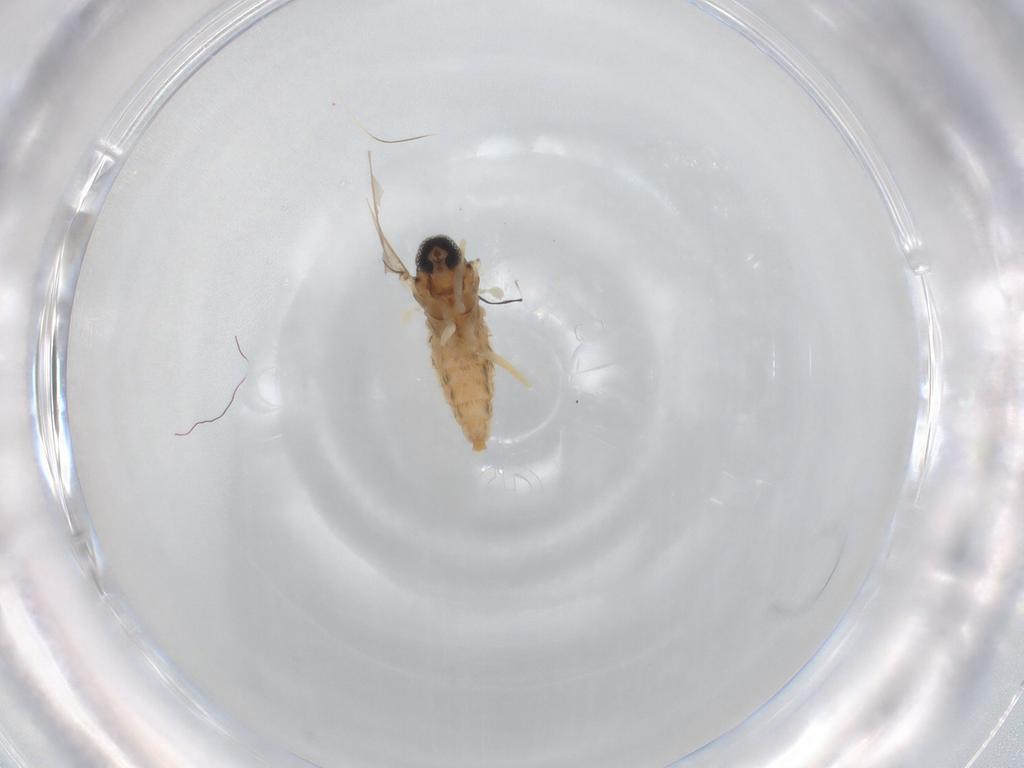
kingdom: Animalia
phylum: Arthropoda
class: Insecta
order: Diptera
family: Cecidomyiidae
